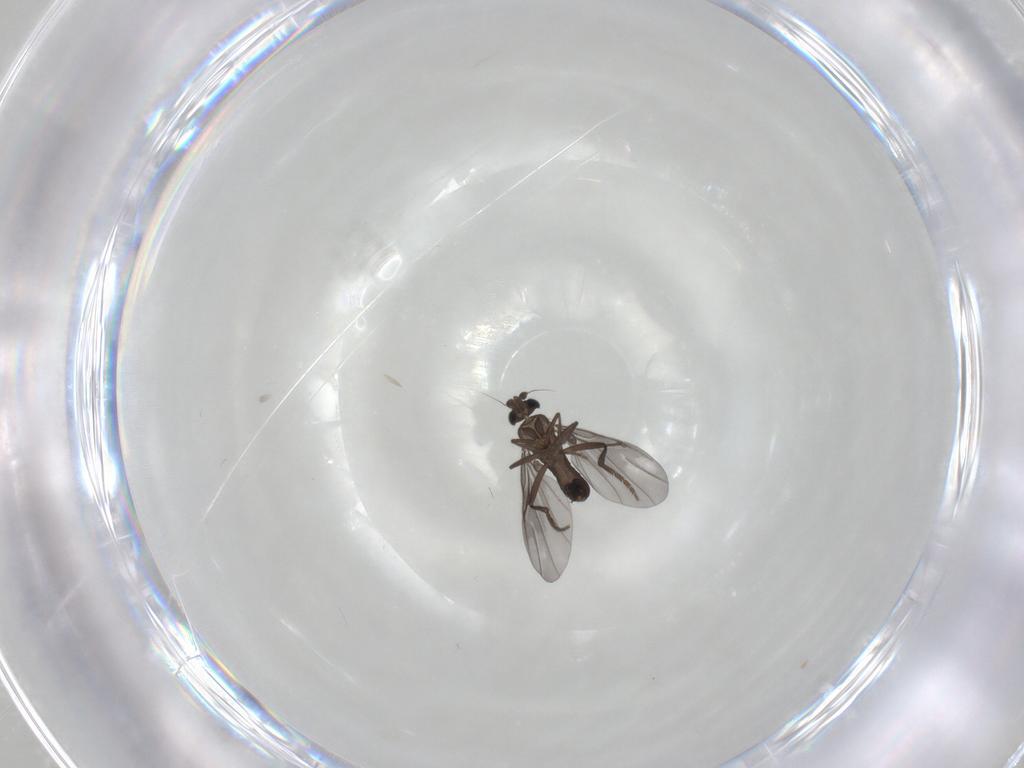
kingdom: Animalia
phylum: Arthropoda
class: Insecta
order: Diptera
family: Phoridae
